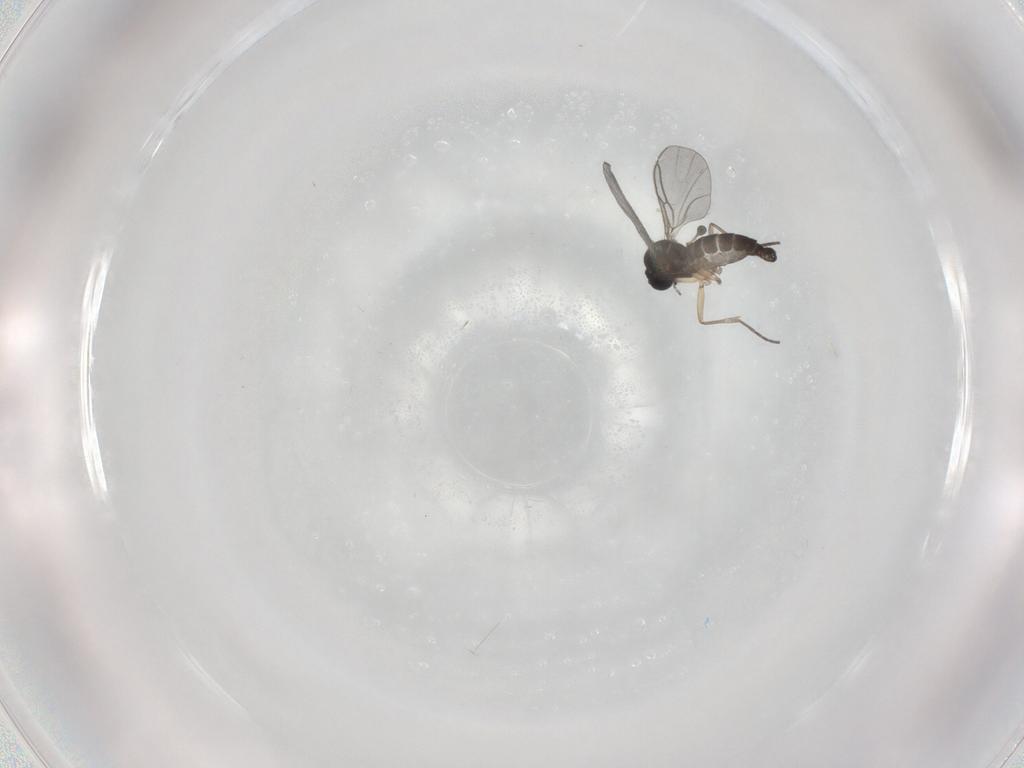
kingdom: Animalia
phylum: Arthropoda
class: Insecta
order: Diptera
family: Sciaridae
